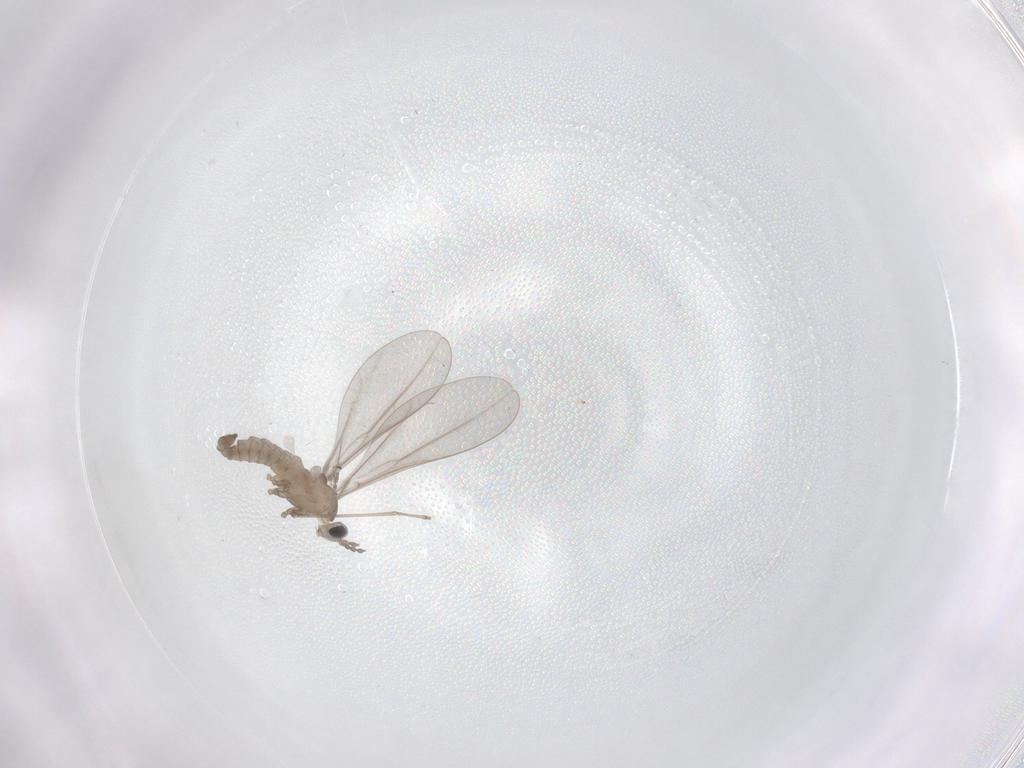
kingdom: Animalia
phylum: Arthropoda
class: Insecta
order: Diptera
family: Cecidomyiidae
